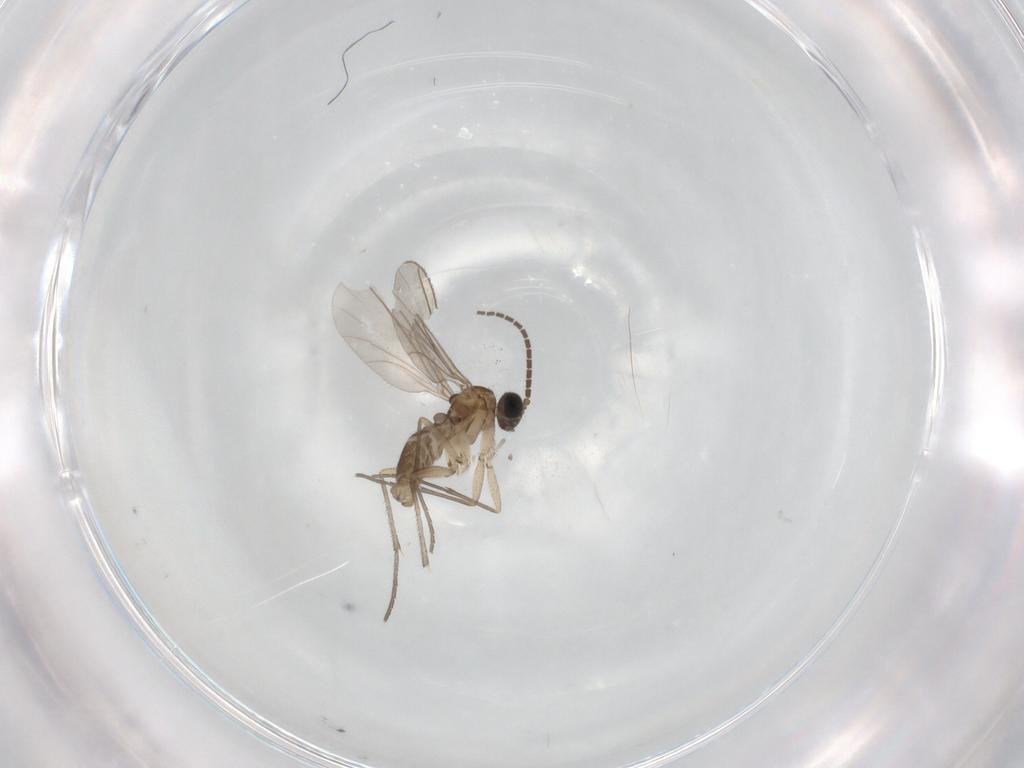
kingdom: Animalia
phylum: Arthropoda
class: Insecta
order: Diptera
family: Sciaridae
